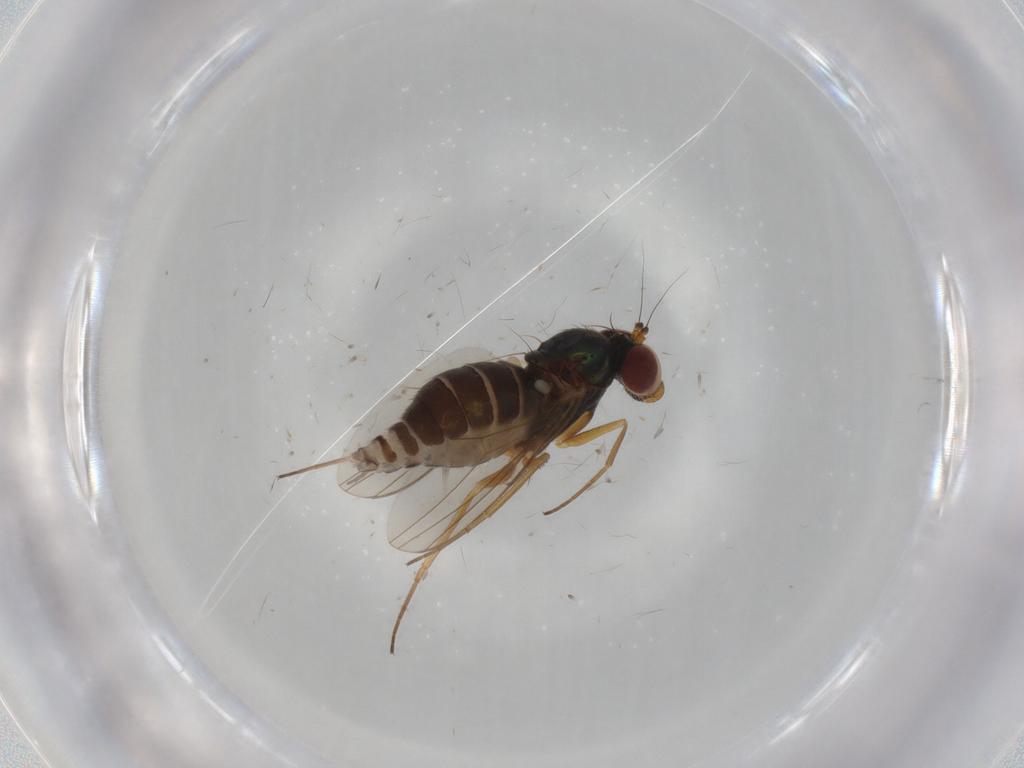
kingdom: Animalia
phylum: Arthropoda
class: Insecta
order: Diptera
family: Dolichopodidae
